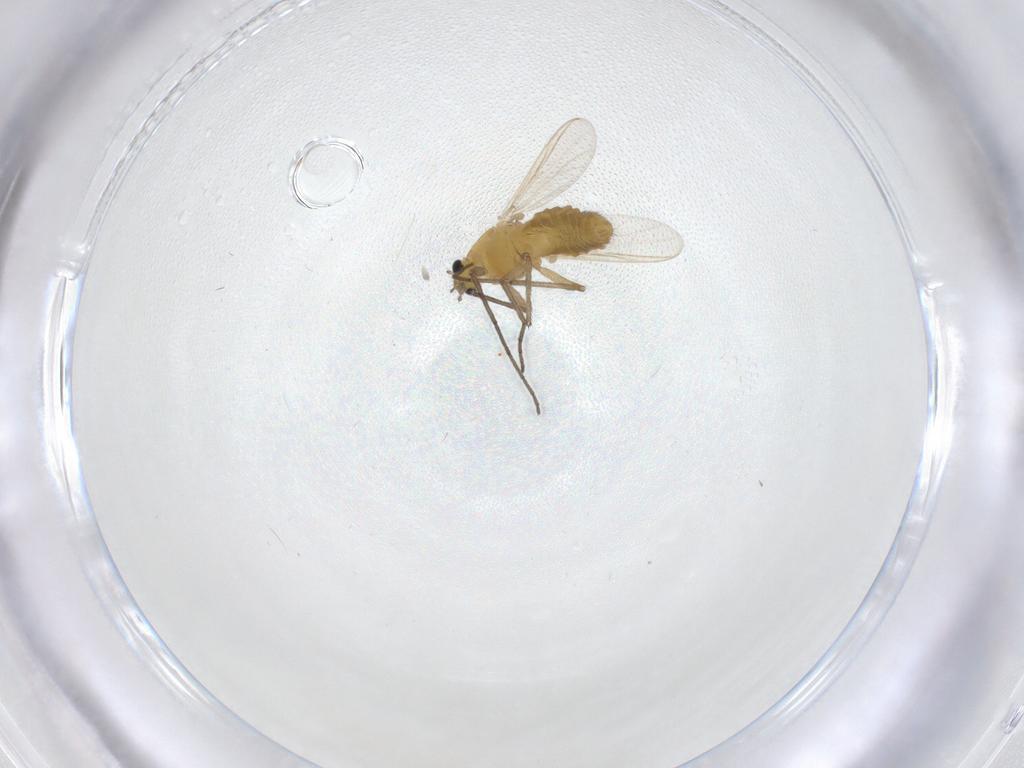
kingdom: Animalia
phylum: Arthropoda
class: Insecta
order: Diptera
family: Chironomidae
